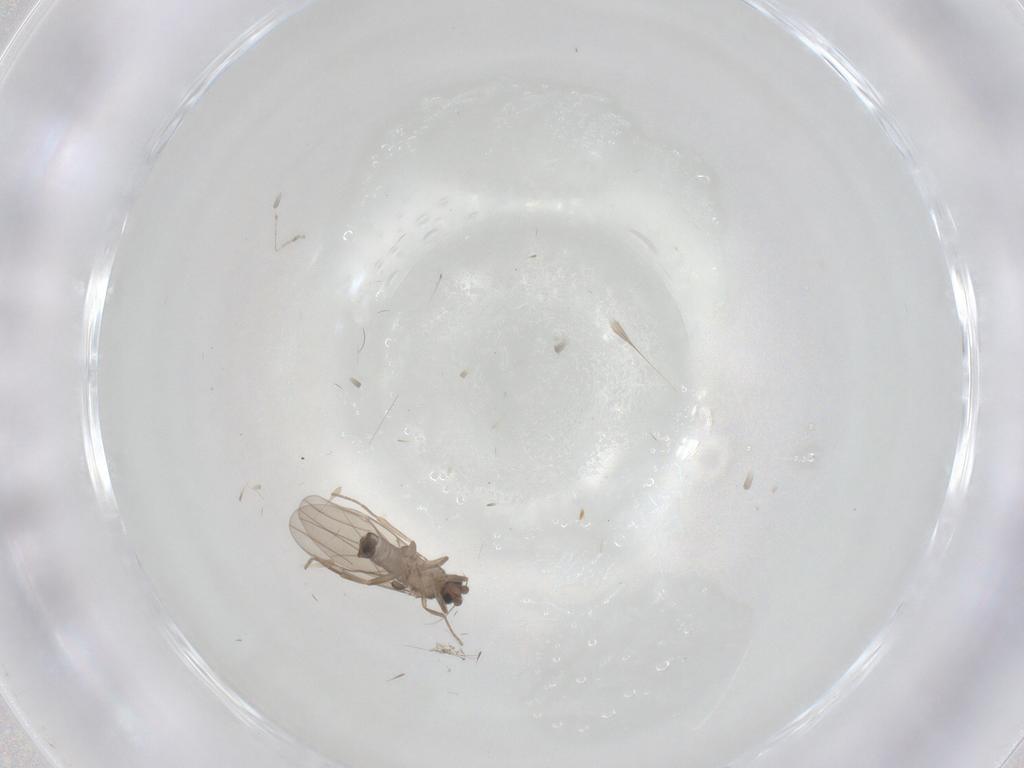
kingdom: Animalia
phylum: Arthropoda
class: Insecta
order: Diptera
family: Phoridae
